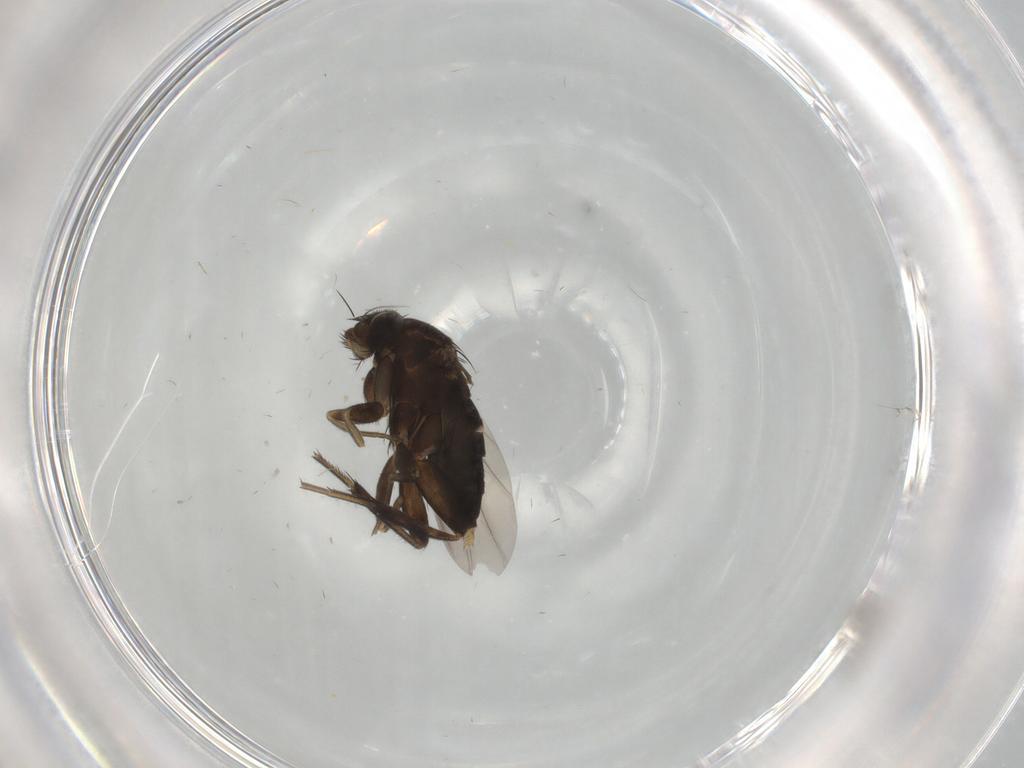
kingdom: Animalia
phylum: Arthropoda
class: Insecta
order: Diptera
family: Phoridae
